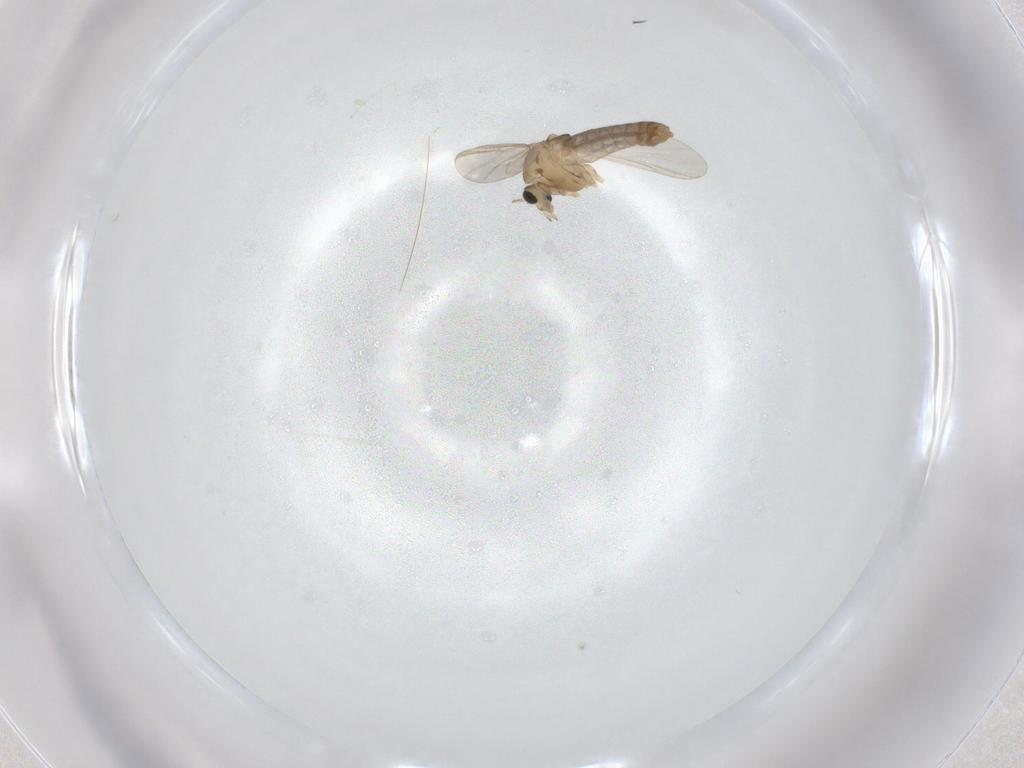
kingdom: Animalia
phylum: Arthropoda
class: Insecta
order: Diptera
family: Chironomidae
